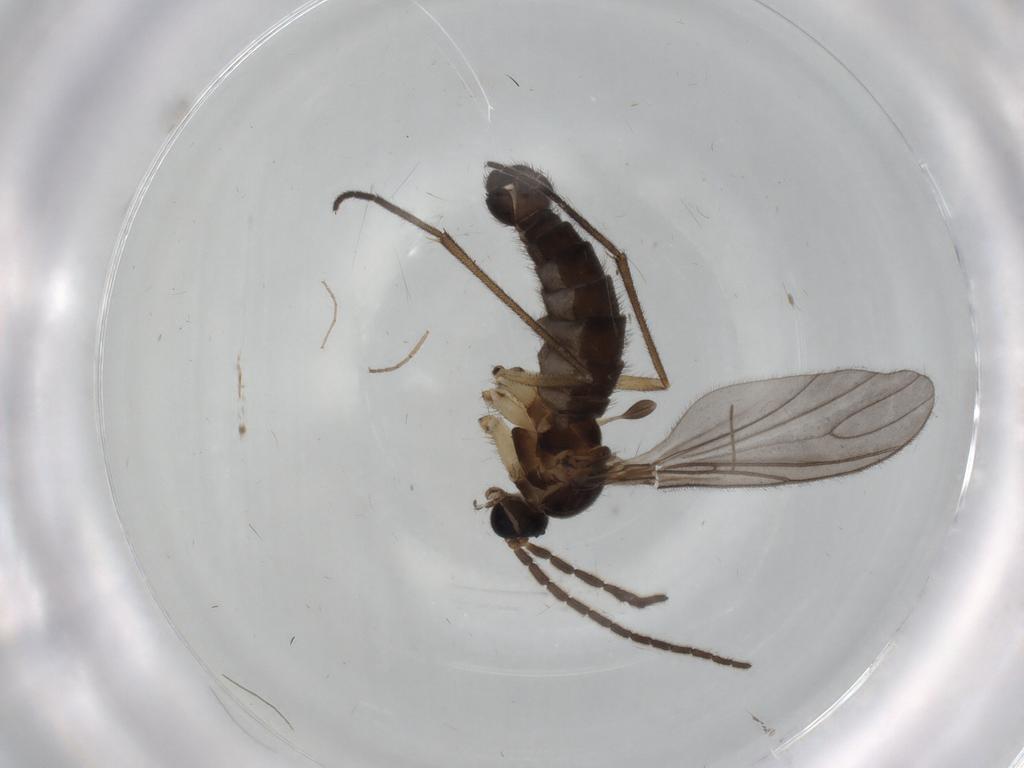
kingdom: Animalia
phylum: Arthropoda
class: Insecta
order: Diptera
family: Sciaridae
